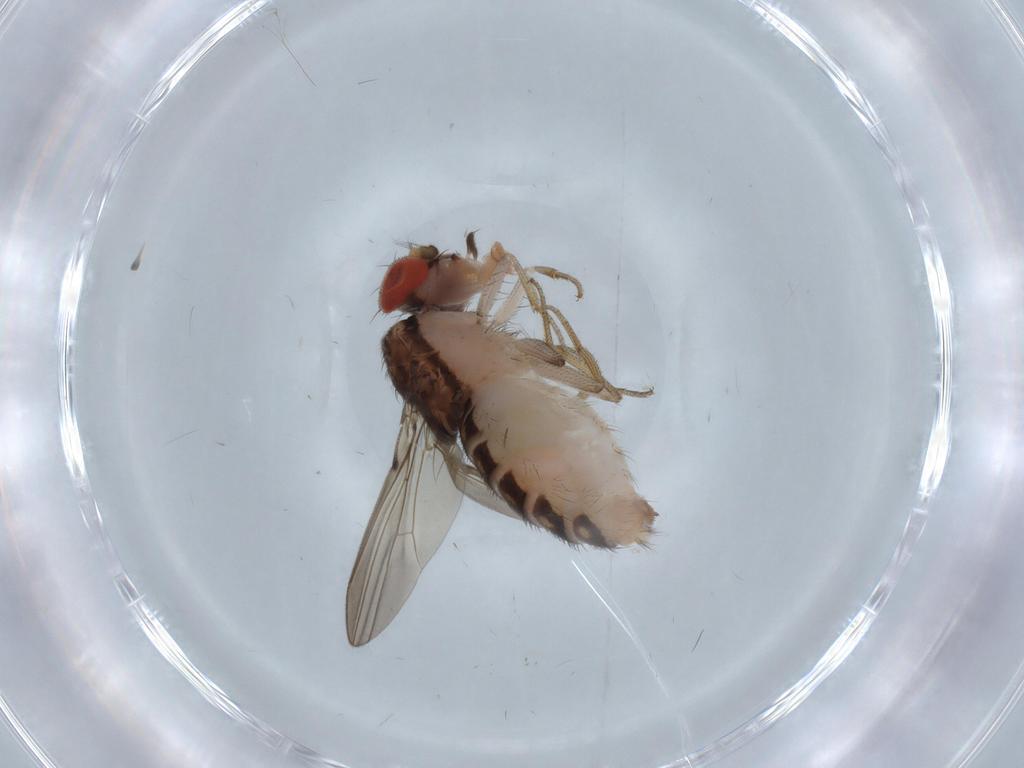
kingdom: Animalia
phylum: Arthropoda
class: Insecta
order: Diptera
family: Drosophilidae
